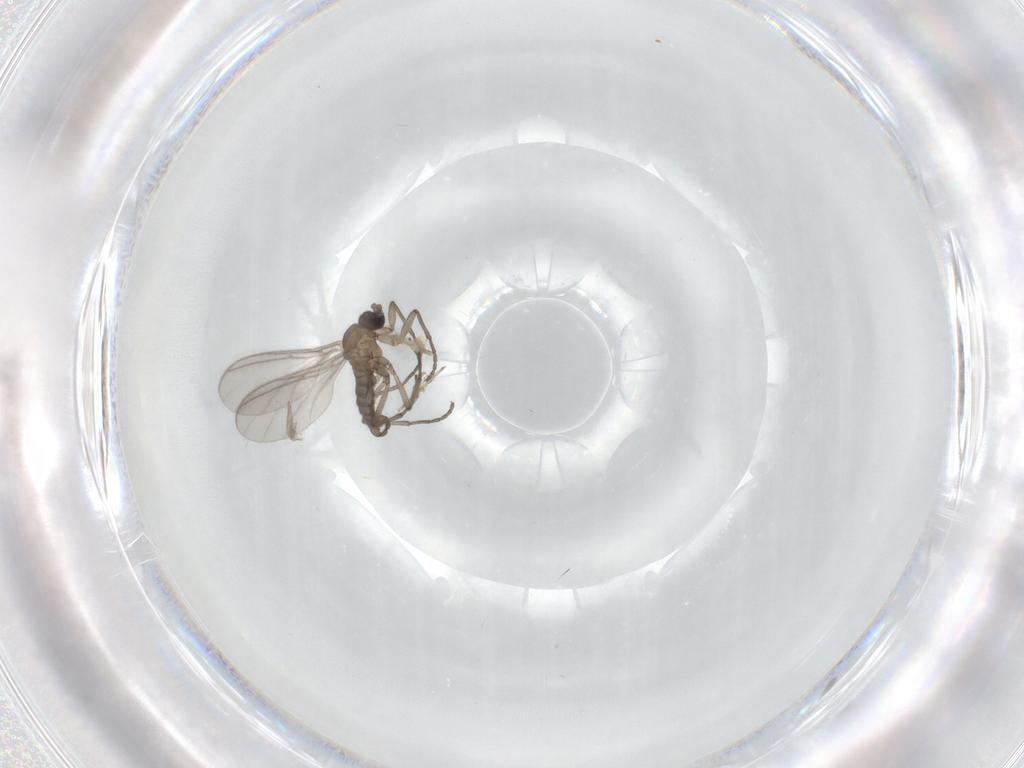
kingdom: Animalia
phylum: Arthropoda
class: Insecta
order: Diptera
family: Sciaridae
